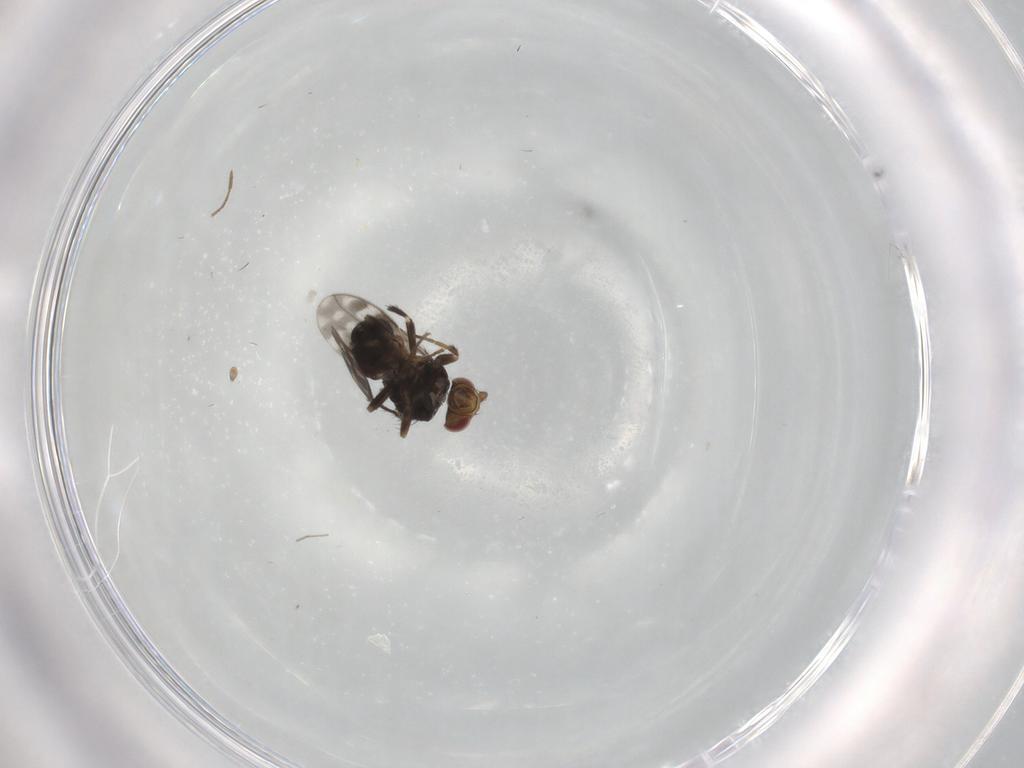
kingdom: Animalia
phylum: Arthropoda
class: Insecta
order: Diptera
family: Sphaeroceridae
